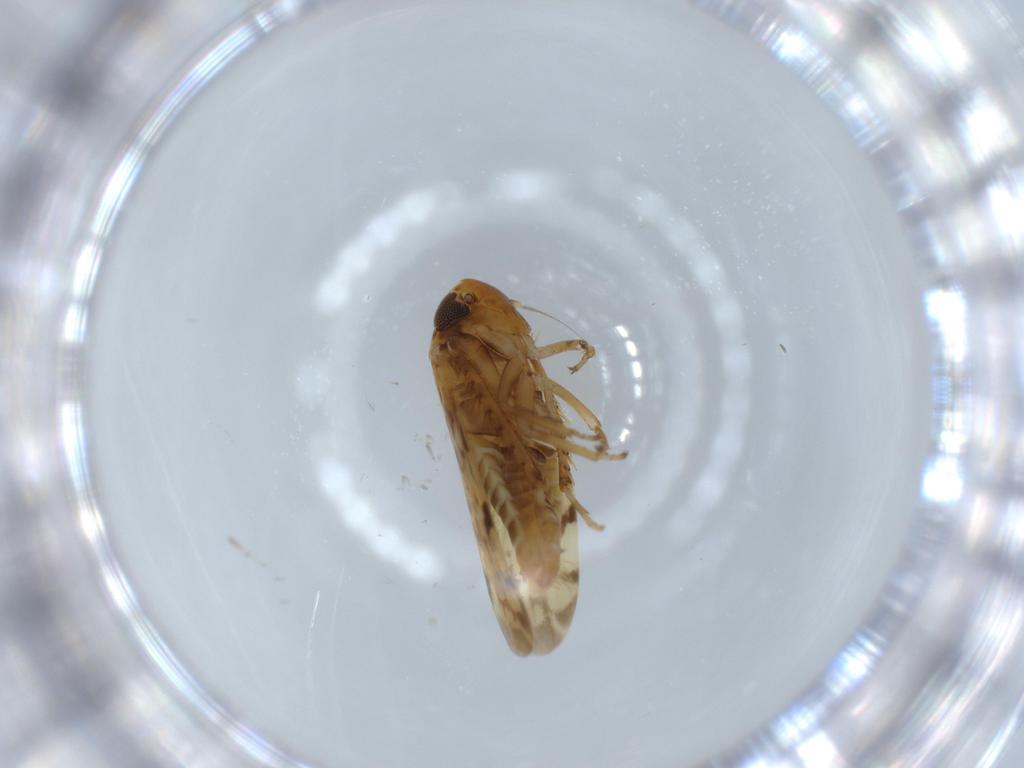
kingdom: Animalia
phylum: Arthropoda
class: Insecta
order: Hemiptera
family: Cicadellidae
